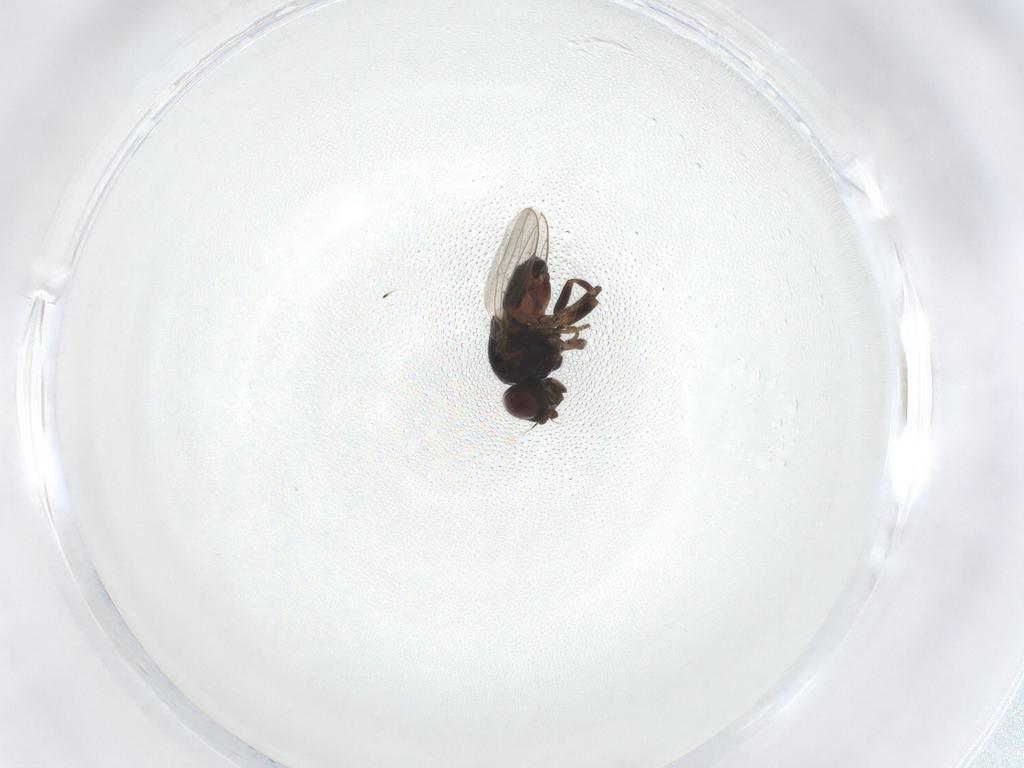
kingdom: Animalia
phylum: Arthropoda
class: Insecta
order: Diptera
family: Chloropidae
